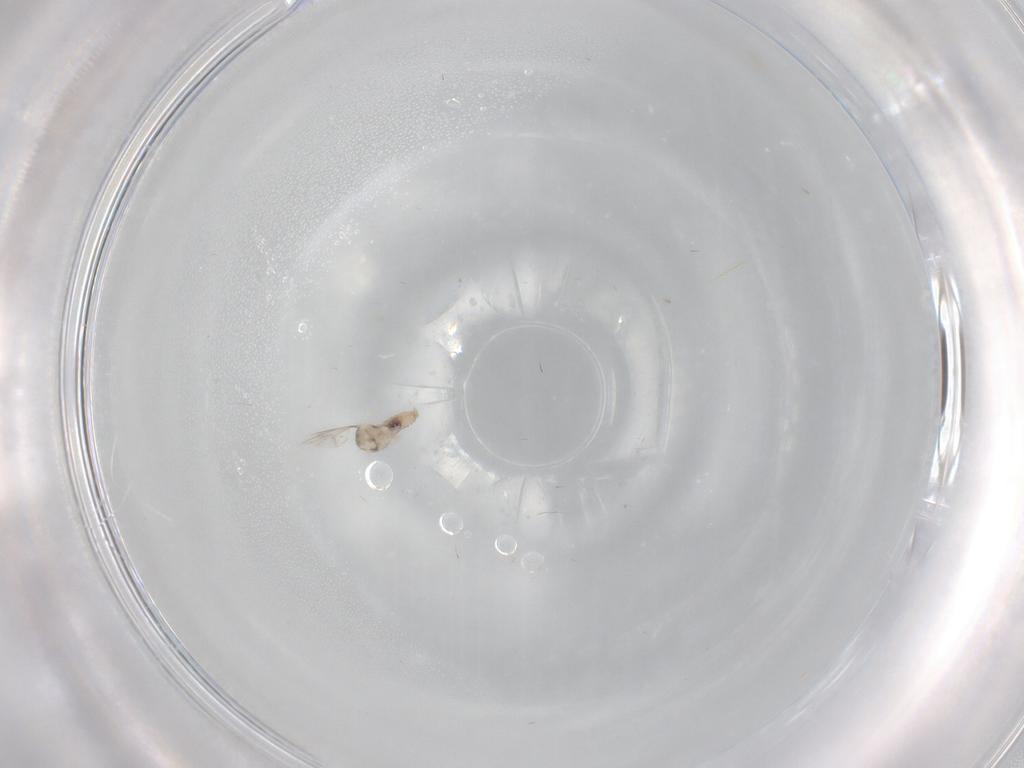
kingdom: Animalia
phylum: Arthropoda
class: Insecta
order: Diptera
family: Cecidomyiidae
